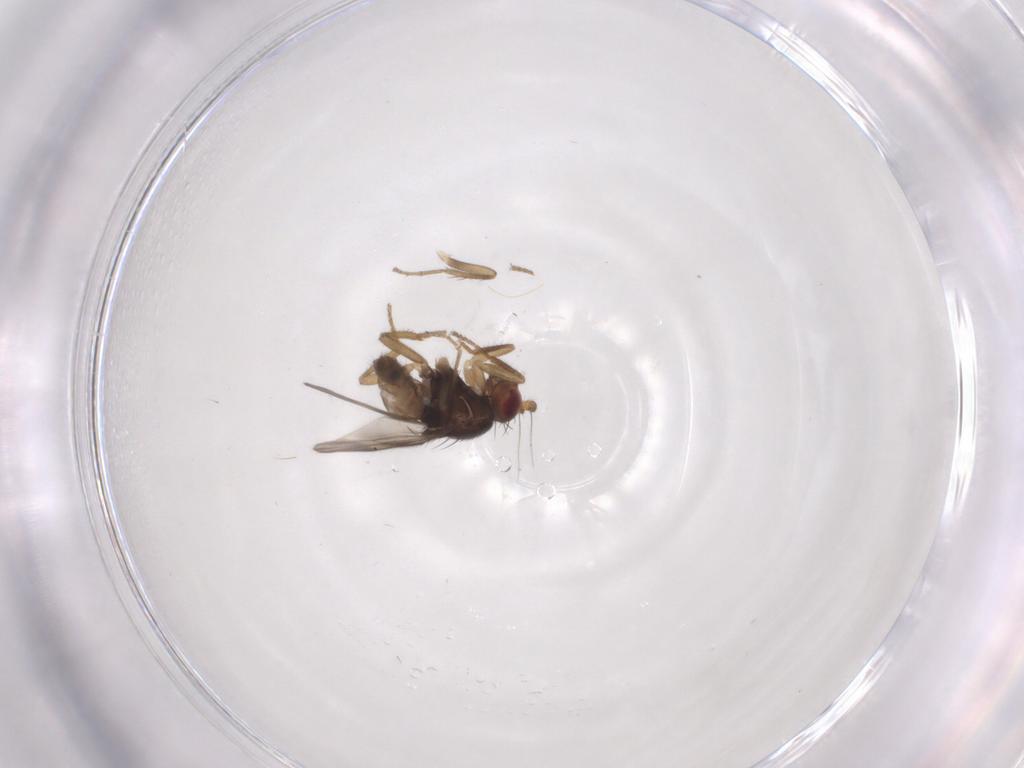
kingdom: Animalia
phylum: Arthropoda
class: Insecta
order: Diptera
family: Sphaeroceridae
